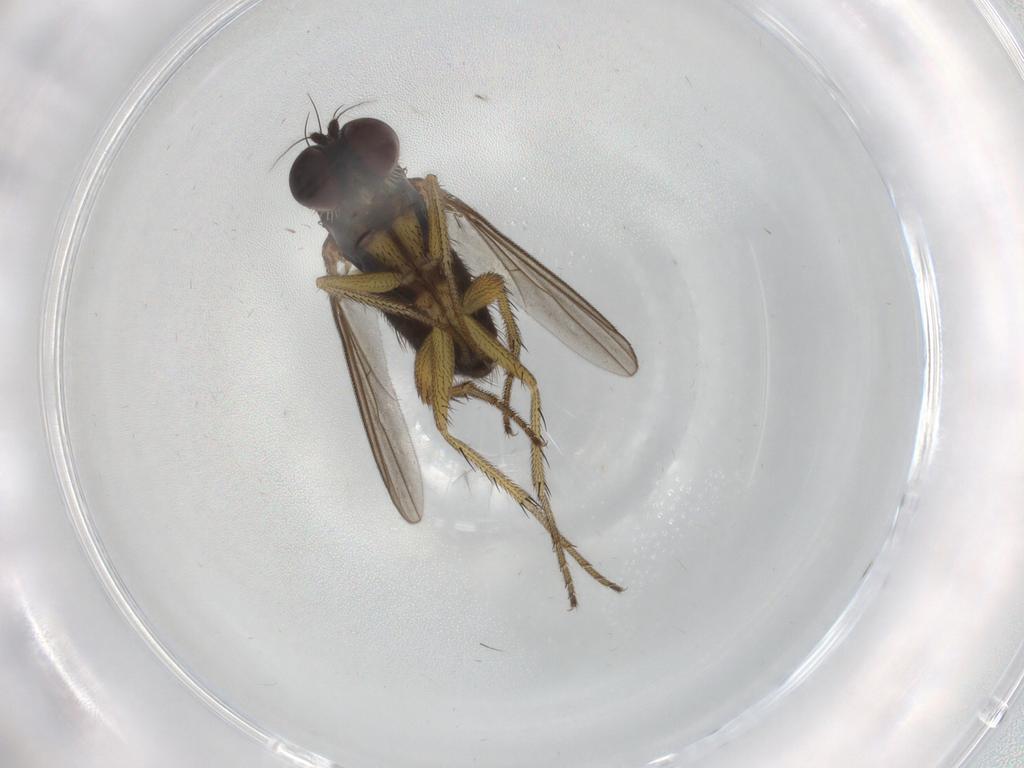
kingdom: Animalia
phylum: Arthropoda
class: Insecta
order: Diptera
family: Dolichopodidae
